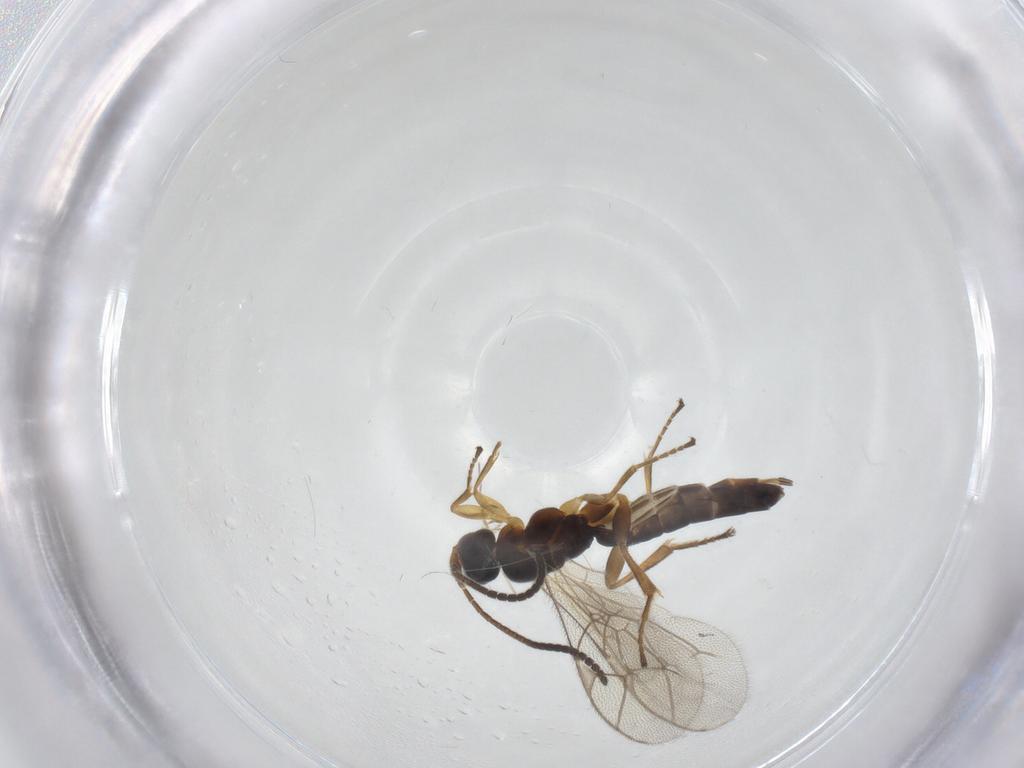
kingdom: Animalia
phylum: Arthropoda
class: Insecta
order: Hymenoptera
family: Ichneumonidae
